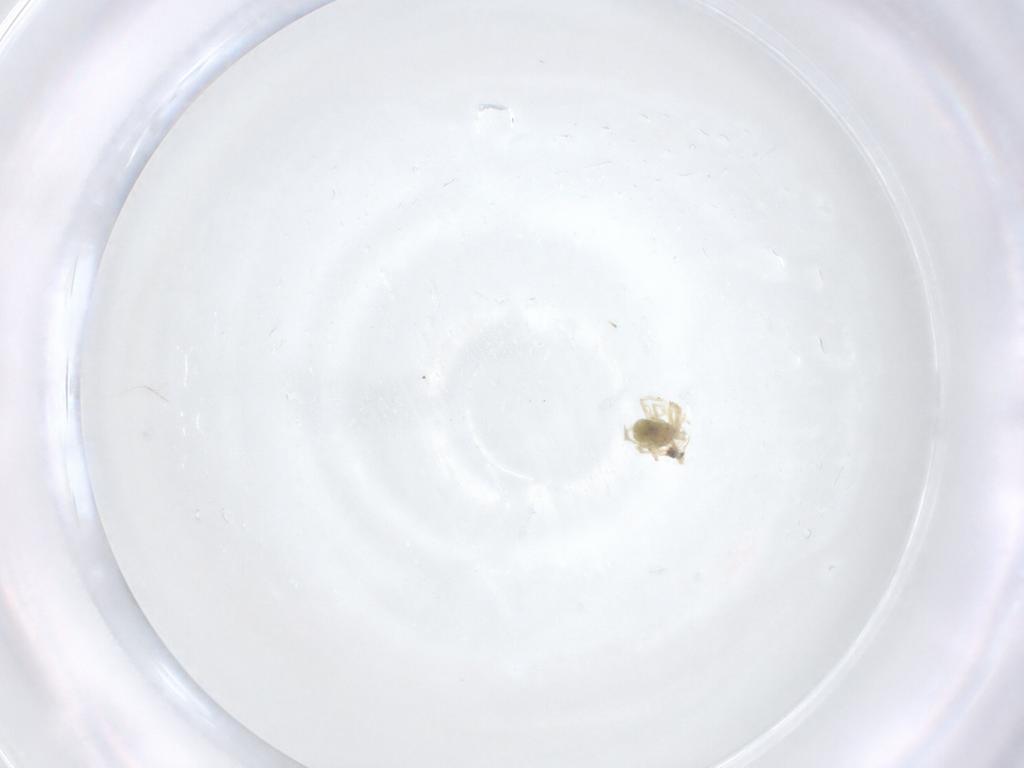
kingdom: Animalia
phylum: Arthropoda
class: Arachnida
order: Trombidiformes
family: Anystidae
